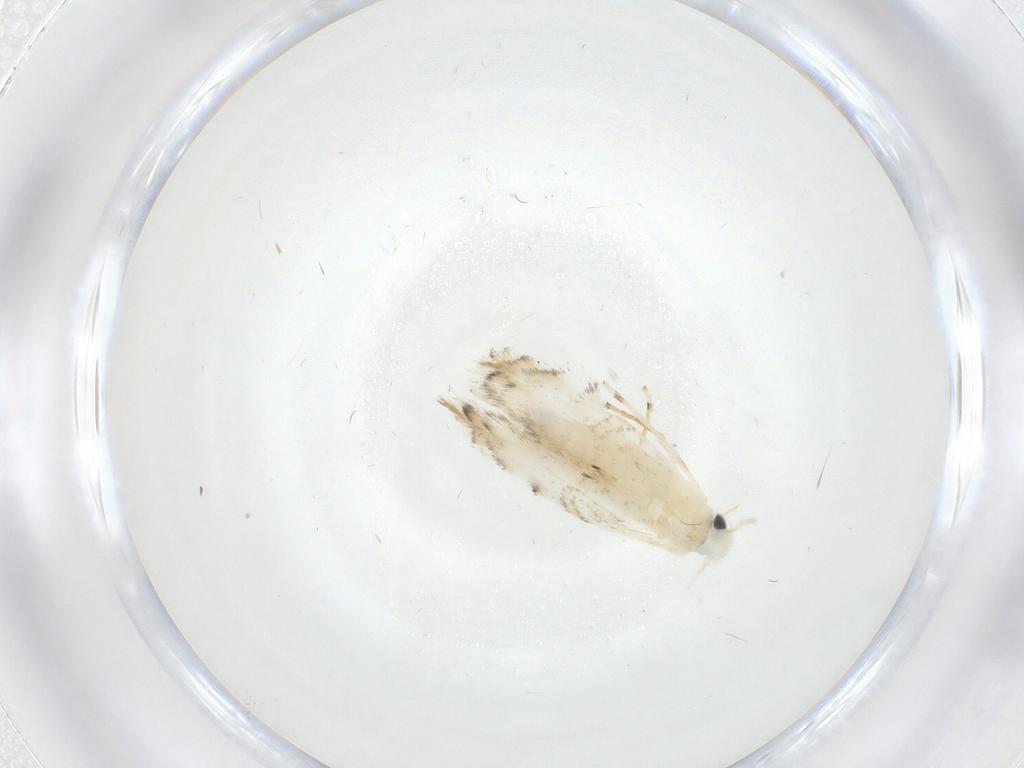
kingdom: Animalia
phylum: Arthropoda
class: Insecta
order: Lepidoptera
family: Gracillariidae
